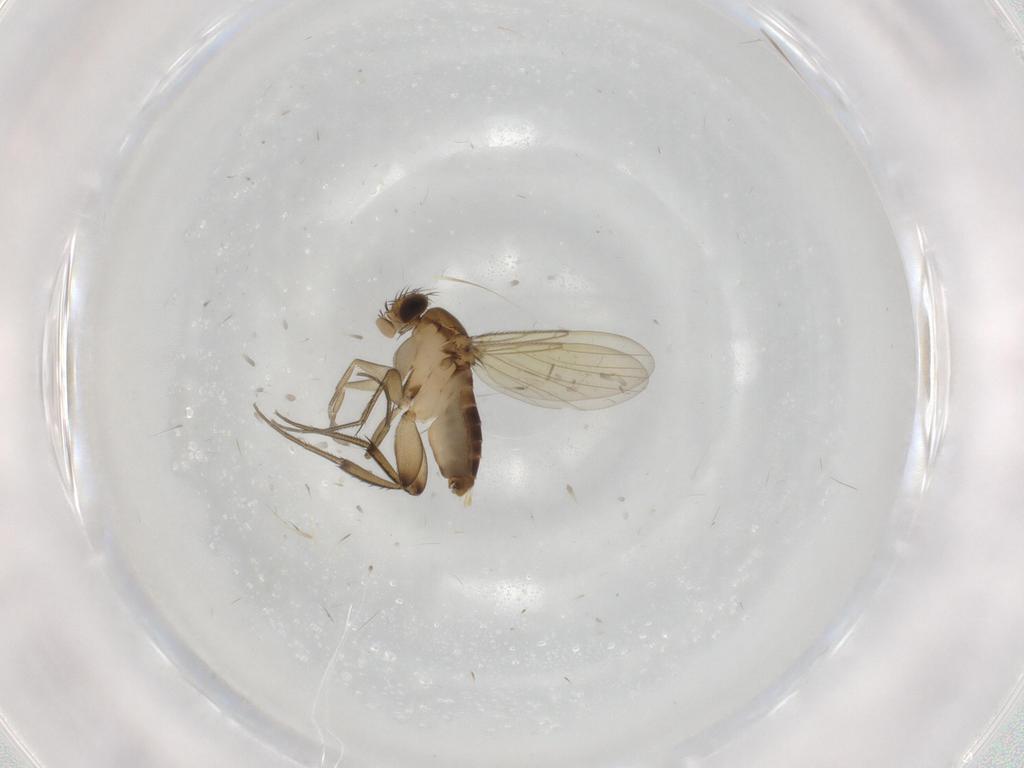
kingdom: Animalia
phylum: Arthropoda
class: Insecta
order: Diptera
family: Phoridae
